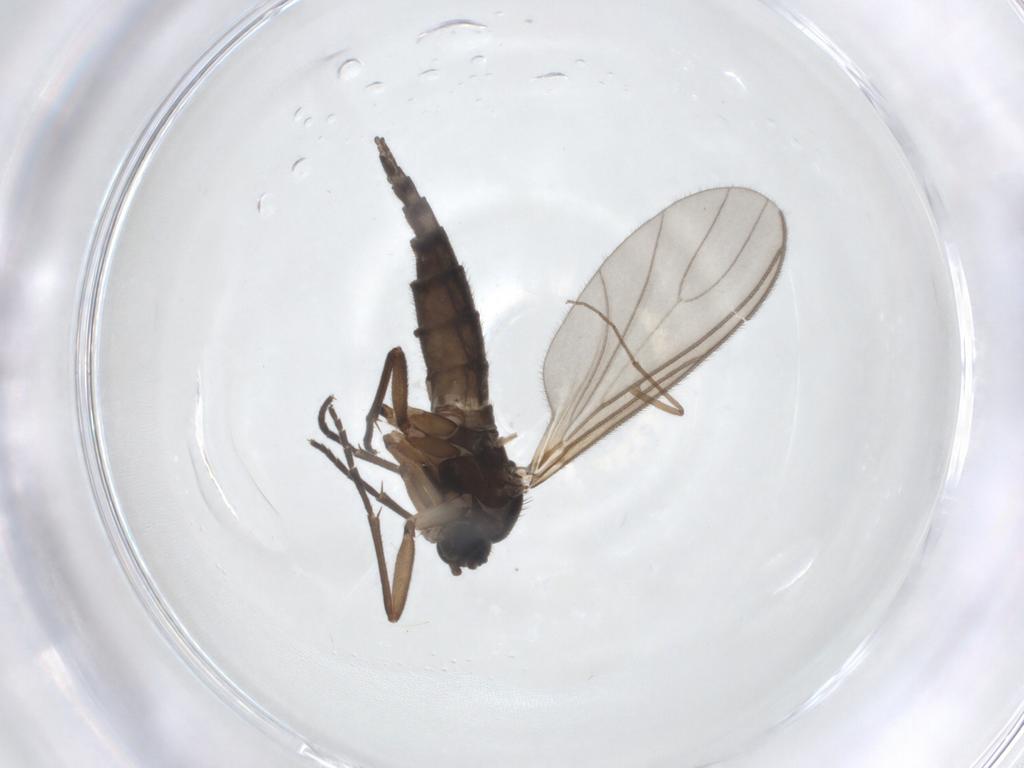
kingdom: Animalia
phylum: Arthropoda
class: Insecta
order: Diptera
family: Sciaridae
